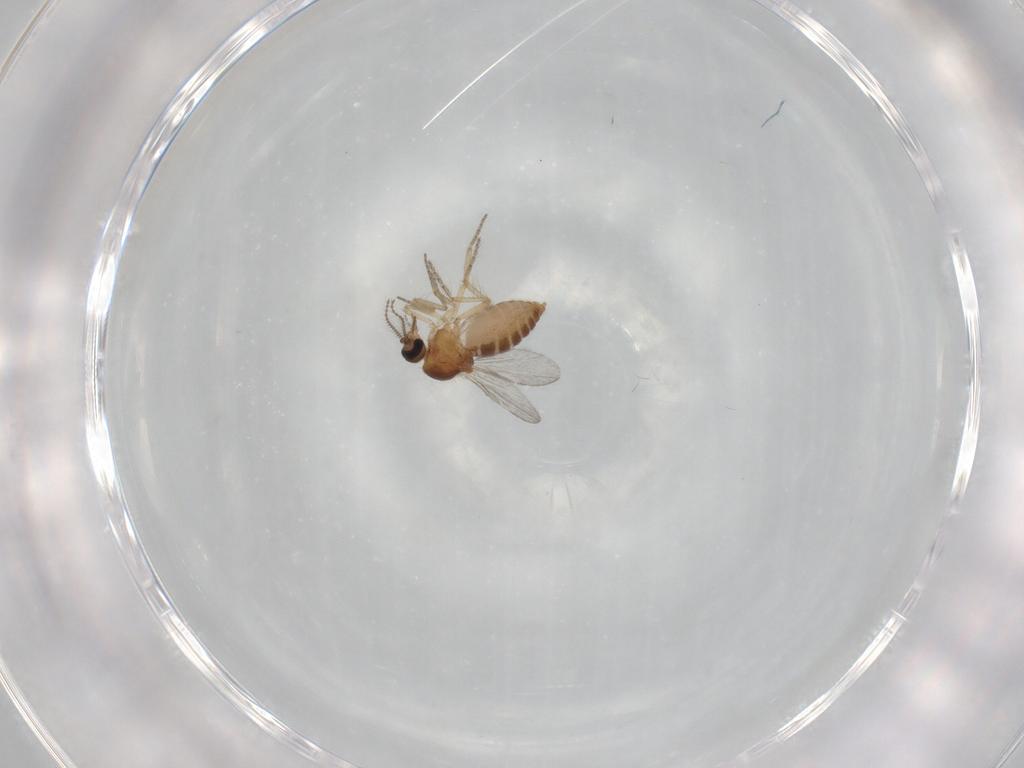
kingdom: Animalia
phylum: Arthropoda
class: Insecta
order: Diptera
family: Ceratopogonidae
